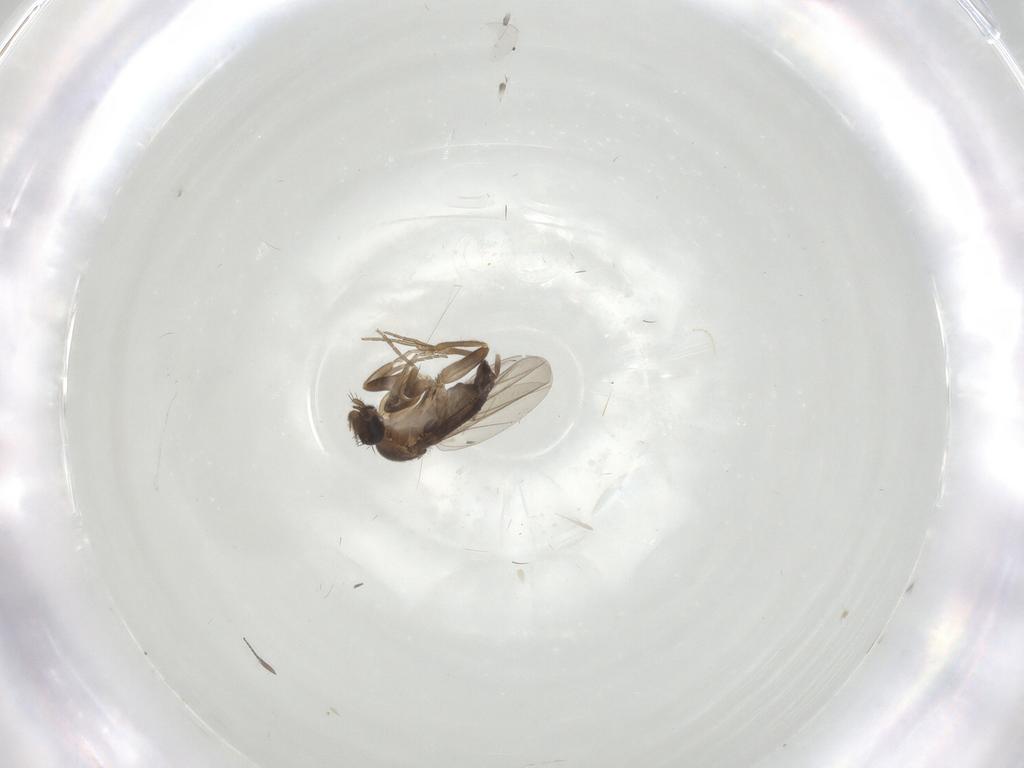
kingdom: Animalia
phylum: Arthropoda
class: Insecta
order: Diptera
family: Phoridae
